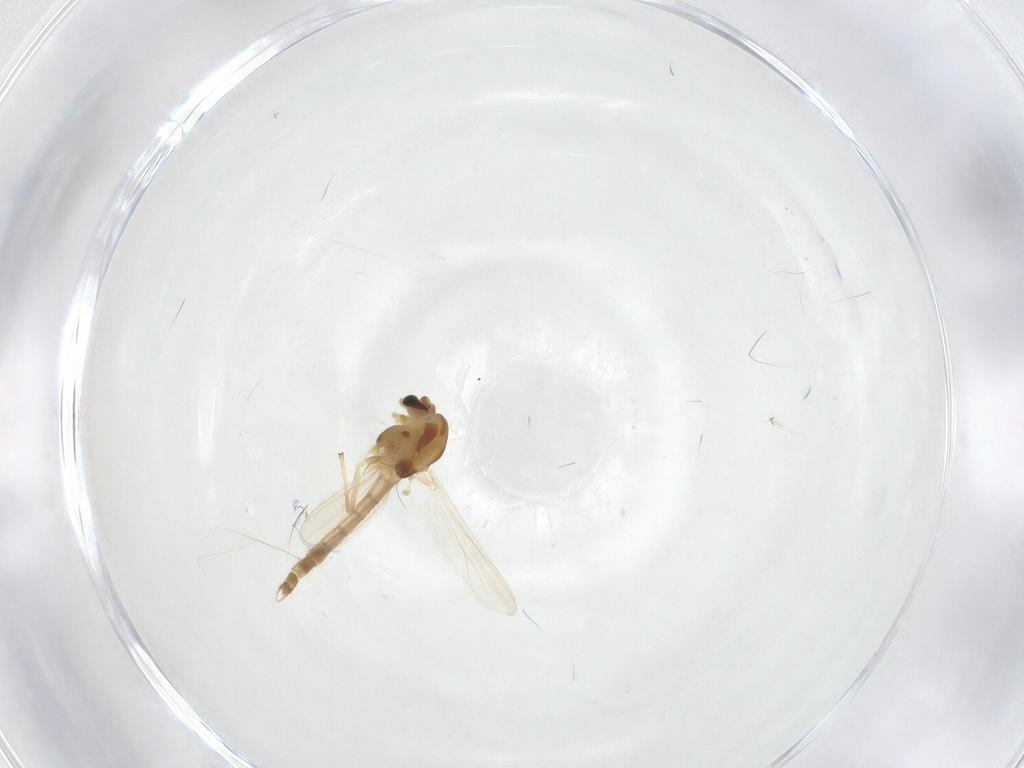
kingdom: Animalia
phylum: Arthropoda
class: Insecta
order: Diptera
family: Chironomidae
